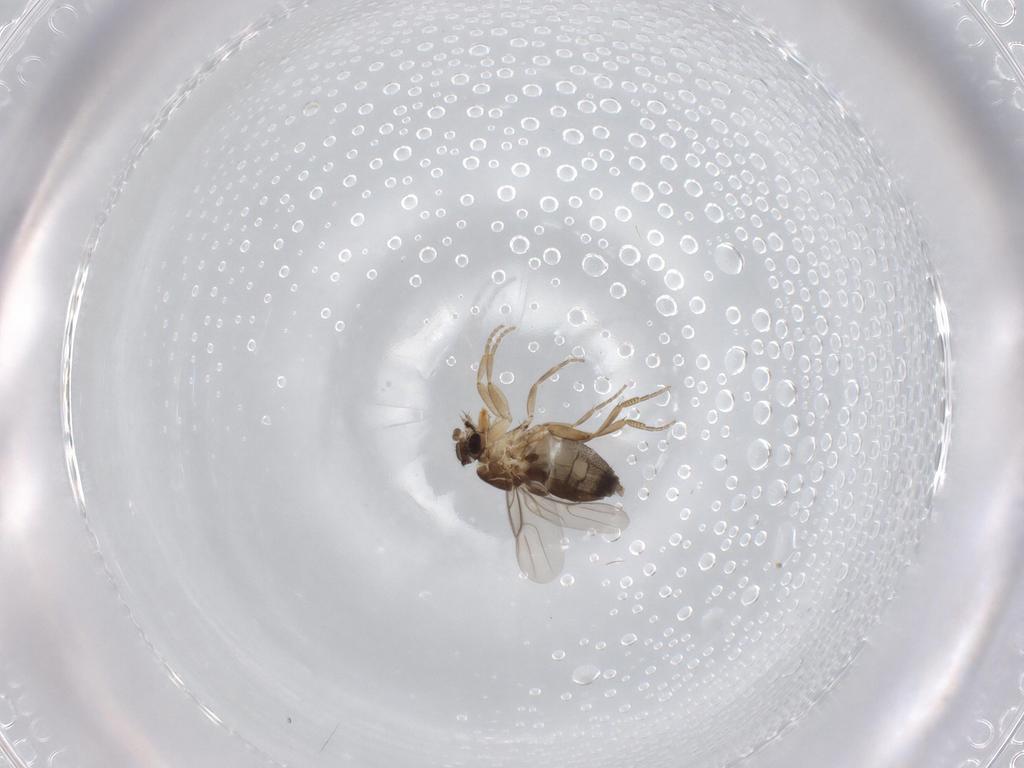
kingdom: Animalia
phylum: Arthropoda
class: Insecta
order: Diptera
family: Phoridae
